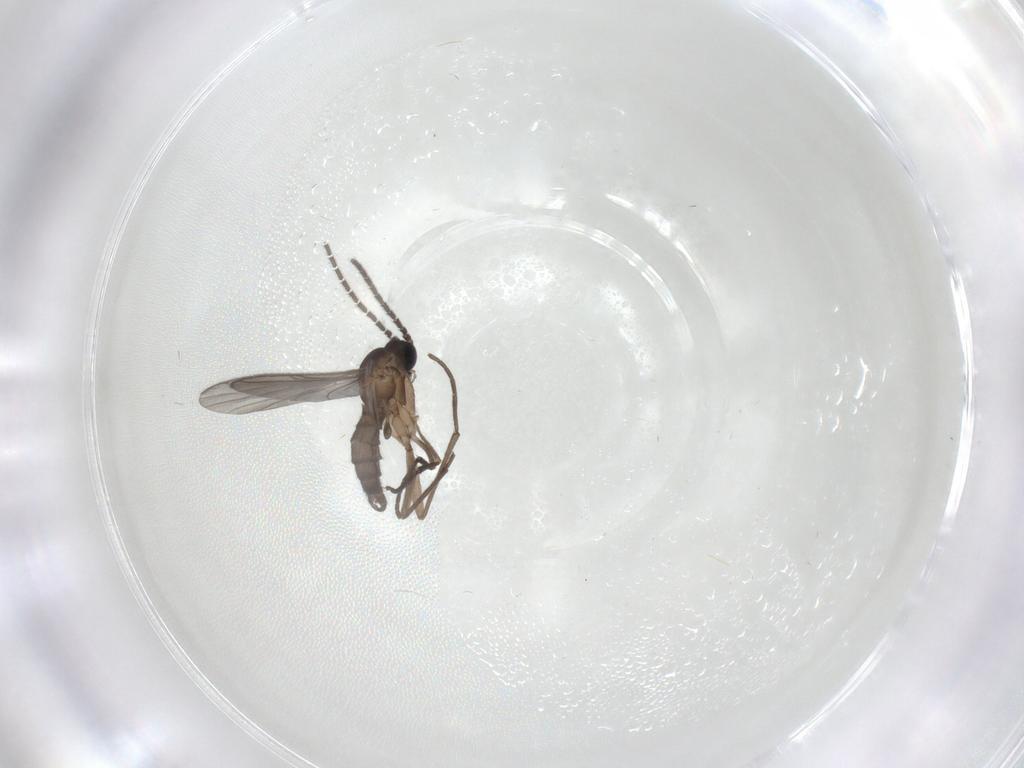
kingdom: Animalia
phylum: Arthropoda
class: Insecta
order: Diptera
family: Sciaridae
